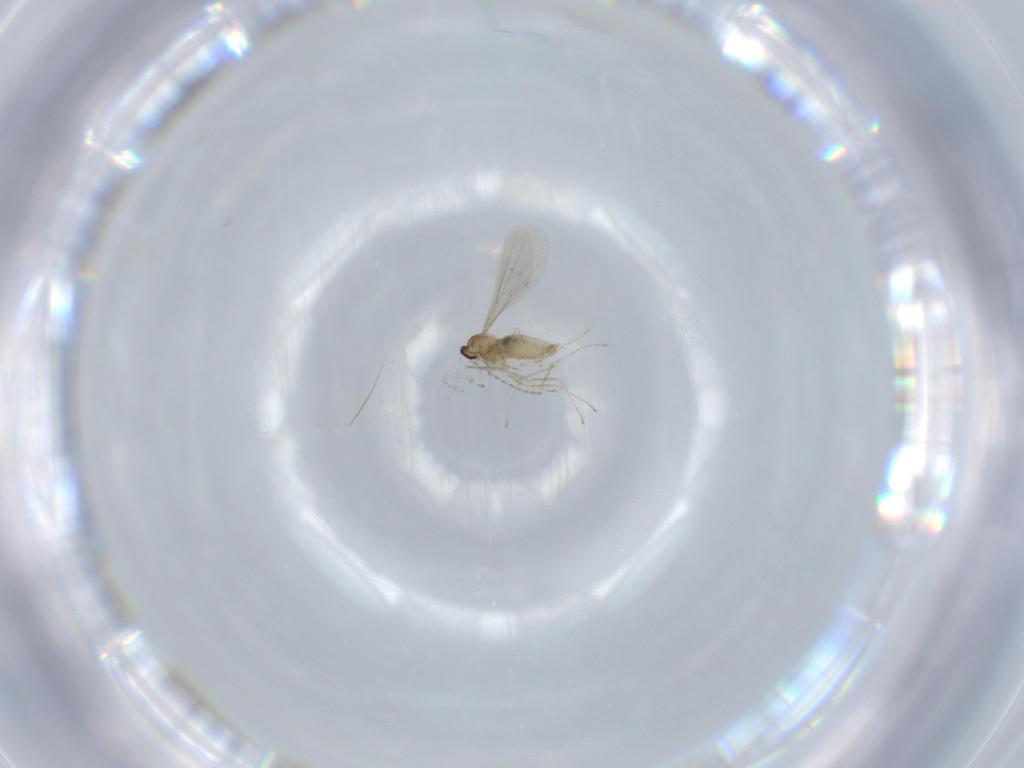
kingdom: Animalia
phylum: Arthropoda
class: Insecta
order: Diptera
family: Cecidomyiidae
